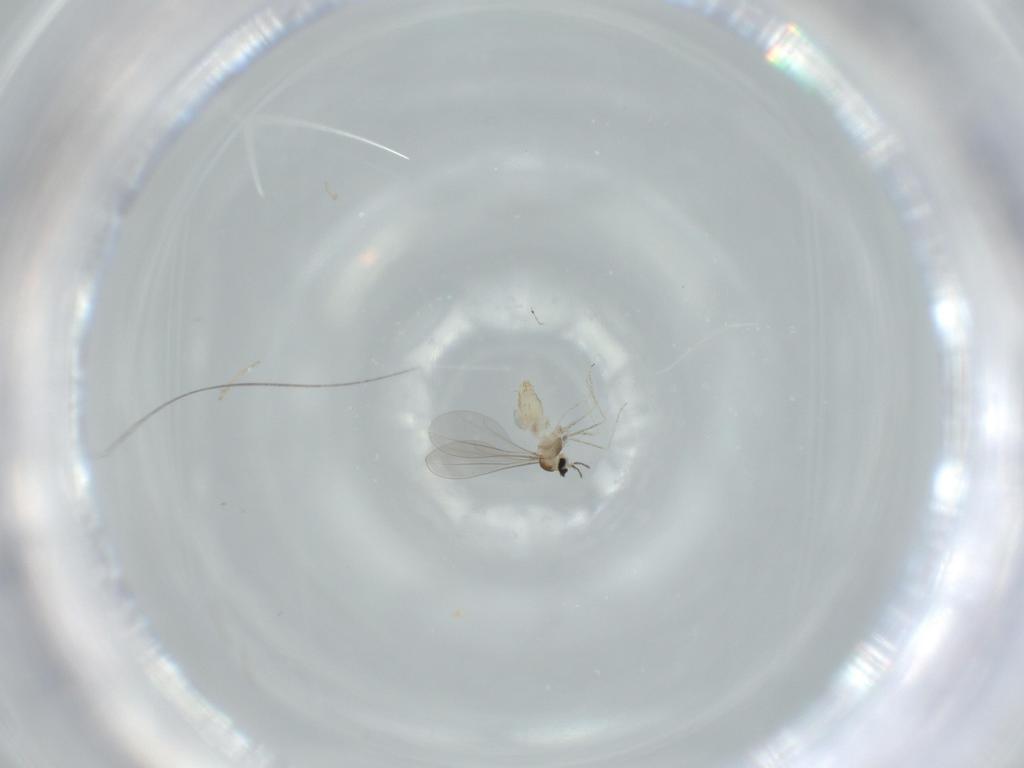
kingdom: Animalia
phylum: Arthropoda
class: Insecta
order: Diptera
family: Cecidomyiidae
